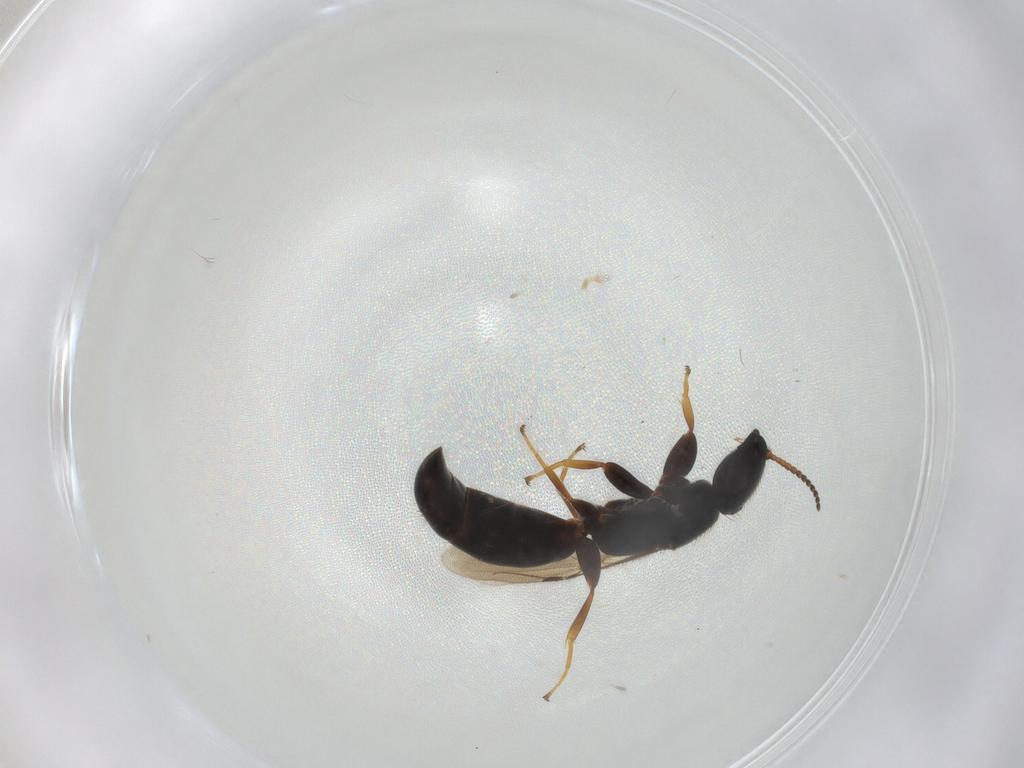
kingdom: Animalia
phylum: Arthropoda
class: Insecta
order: Hymenoptera
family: Bethylidae
